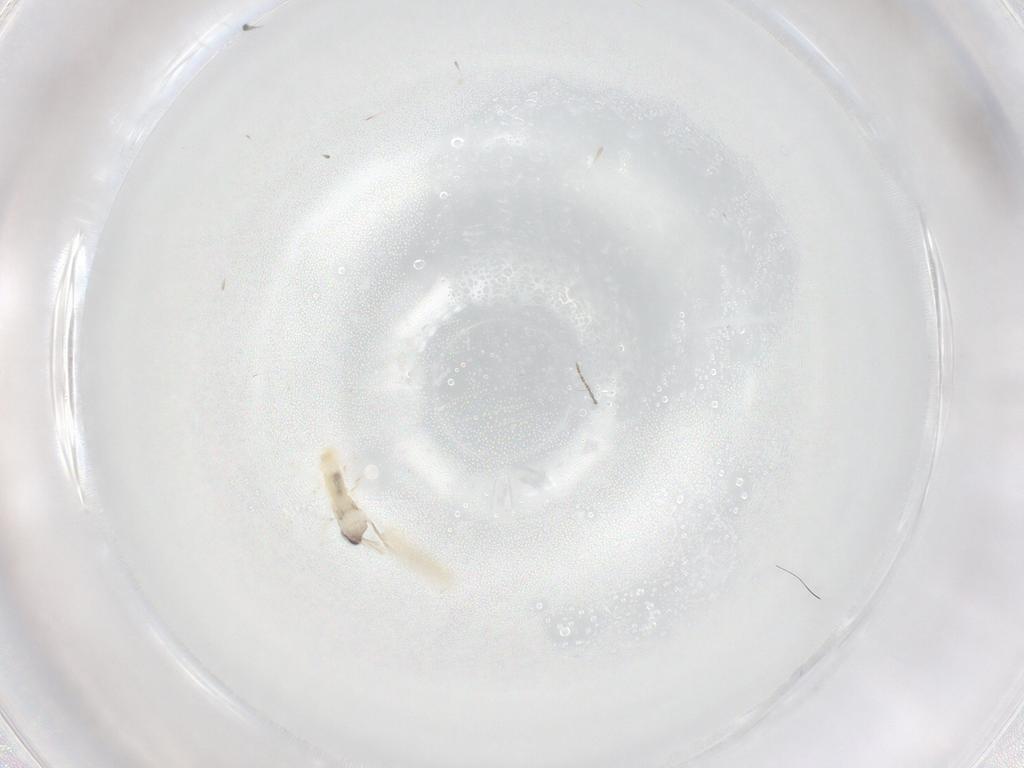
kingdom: Animalia
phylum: Arthropoda
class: Insecta
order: Diptera
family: Cecidomyiidae
